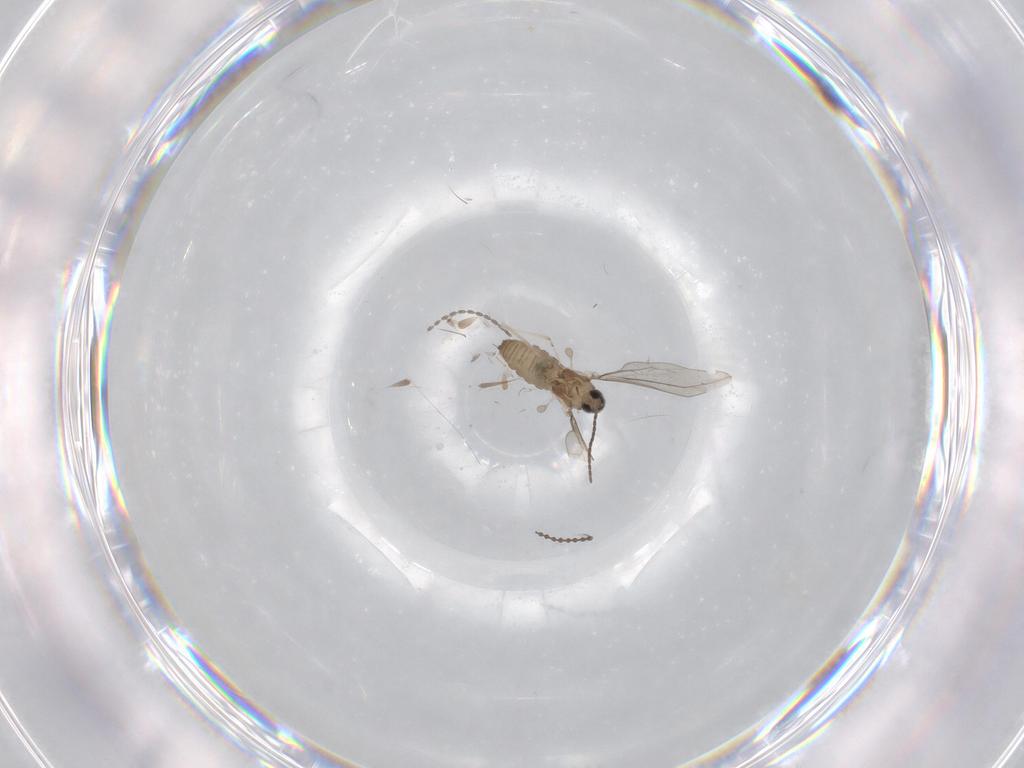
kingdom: Animalia
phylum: Arthropoda
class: Insecta
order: Diptera
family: Cecidomyiidae
